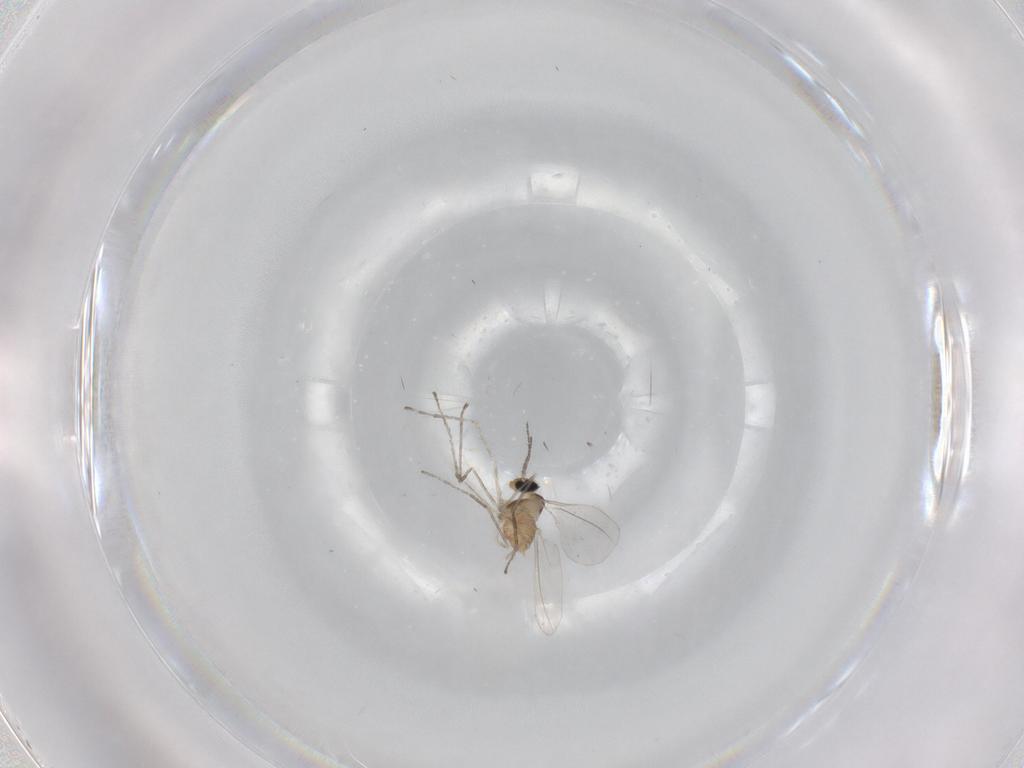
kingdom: Animalia
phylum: Arthropoda
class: Insecta
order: Diptera
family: Cecidomyiidae
